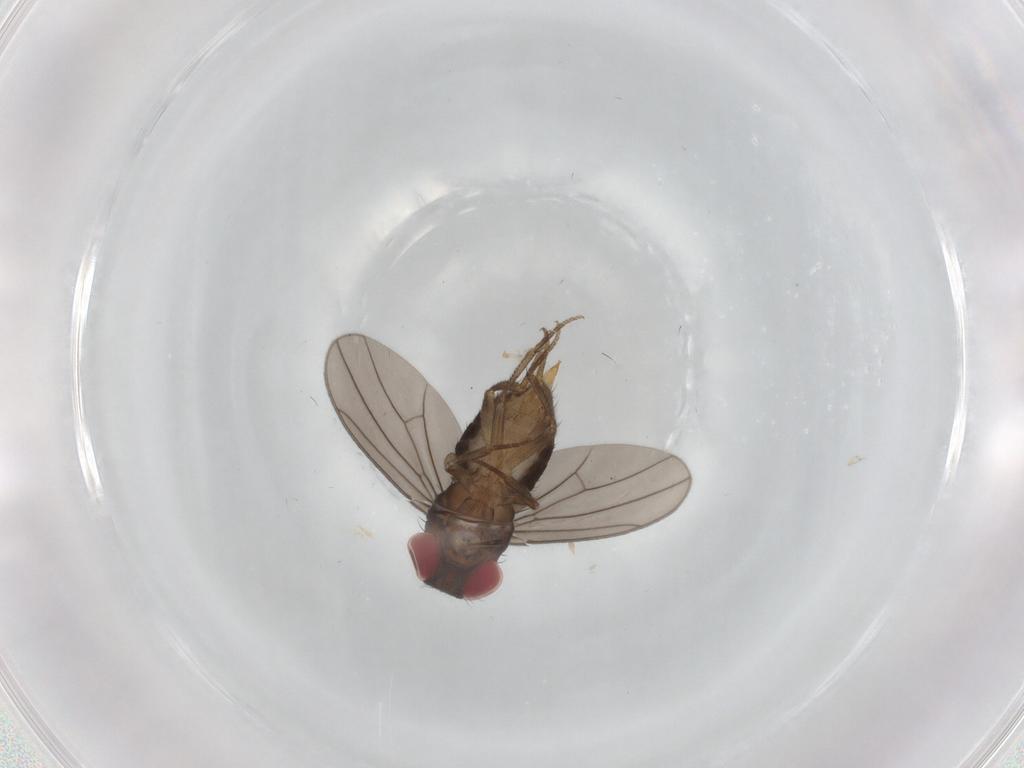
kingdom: Animalia
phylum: Arthropoda
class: Insecta
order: Diptera
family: Drosophilidae
